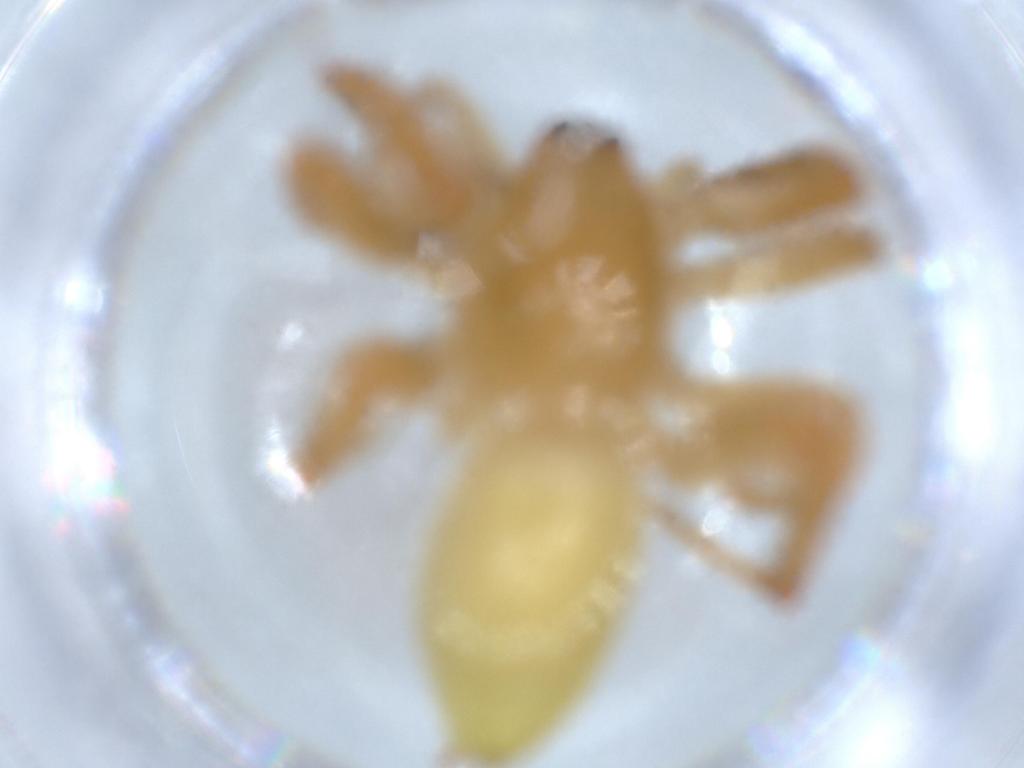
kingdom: Animalia
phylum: Arthropoda
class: Arachnida
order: Araneae
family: Anyphaenidae
